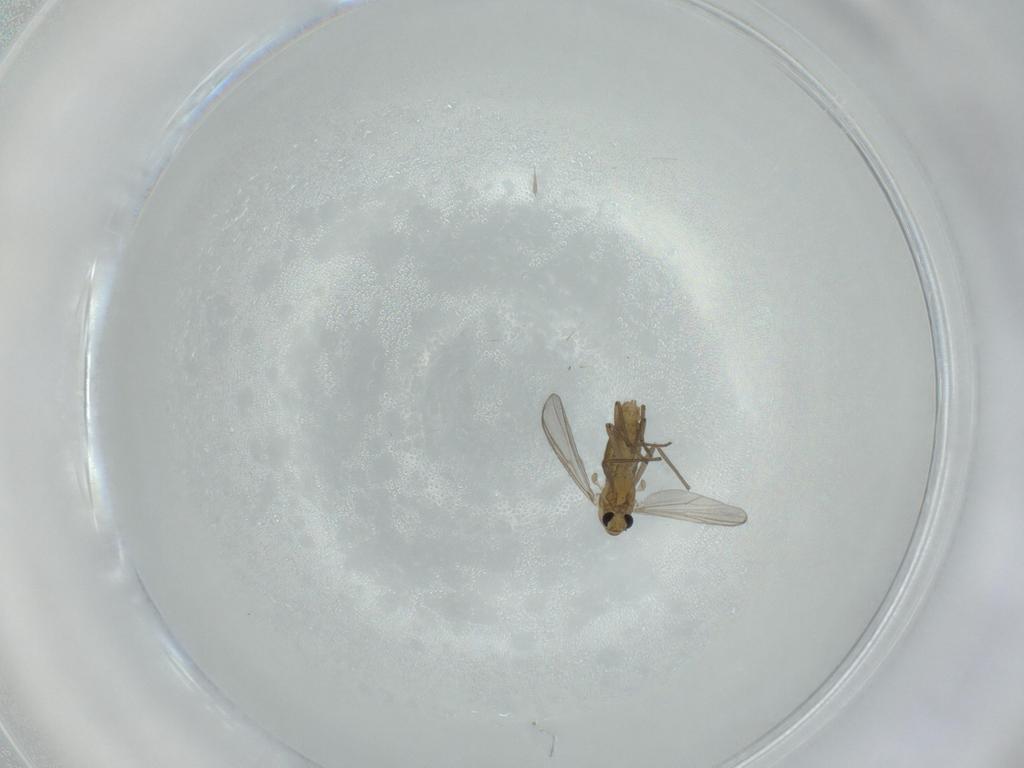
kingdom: Animalia
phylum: Arthropoda
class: Insecta
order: Diptera
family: Chironomidae
